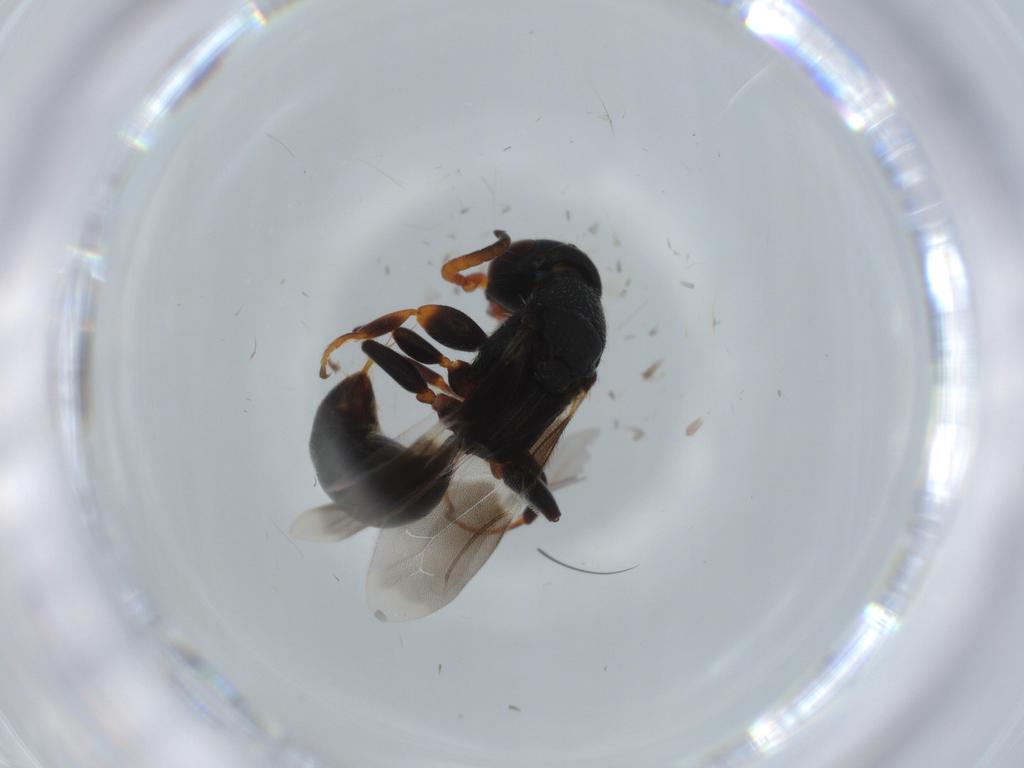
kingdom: Animalia
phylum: Arthropoda
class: Insecta
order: Hymenoptera
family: Bethylidae
